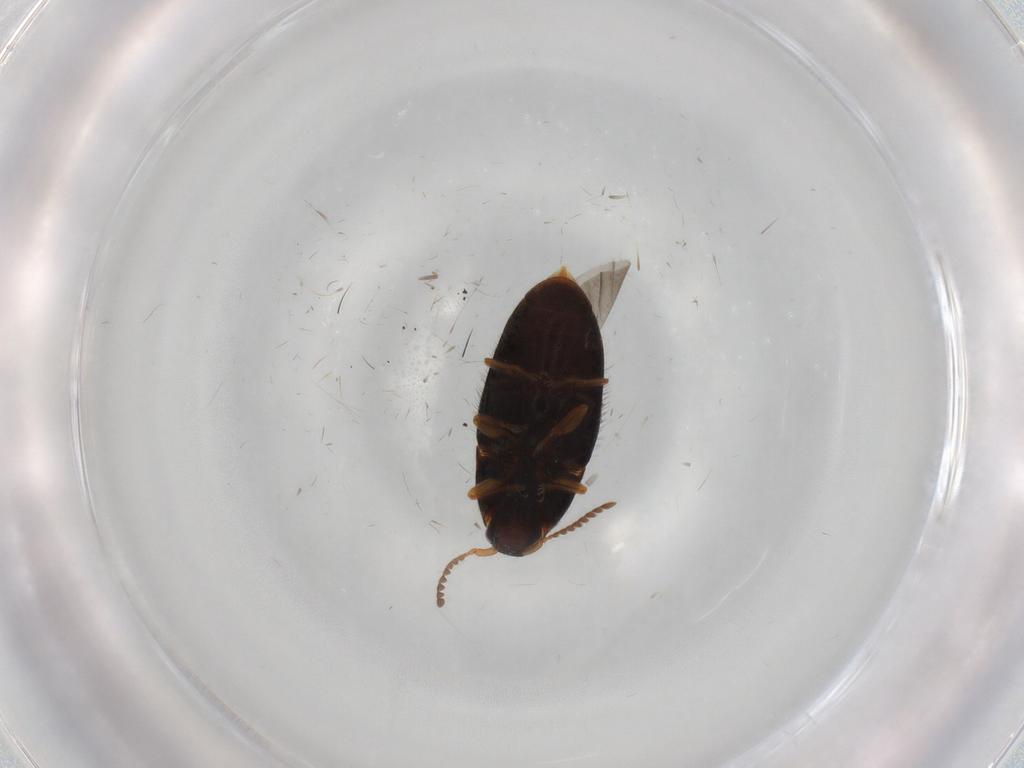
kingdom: Animalia
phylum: Arthropoda
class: Insecta
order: Coleoptera
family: Elateridae
